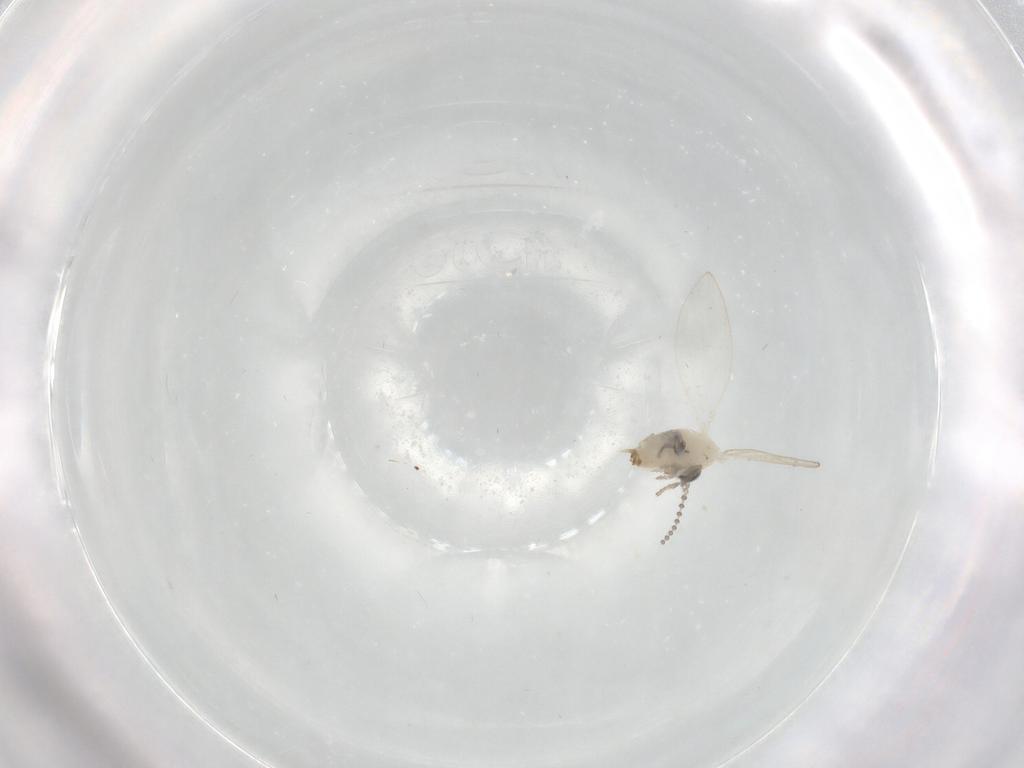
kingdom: Animalia
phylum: Arthropoda
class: Insecta
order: Diptera
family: Psychodidae
